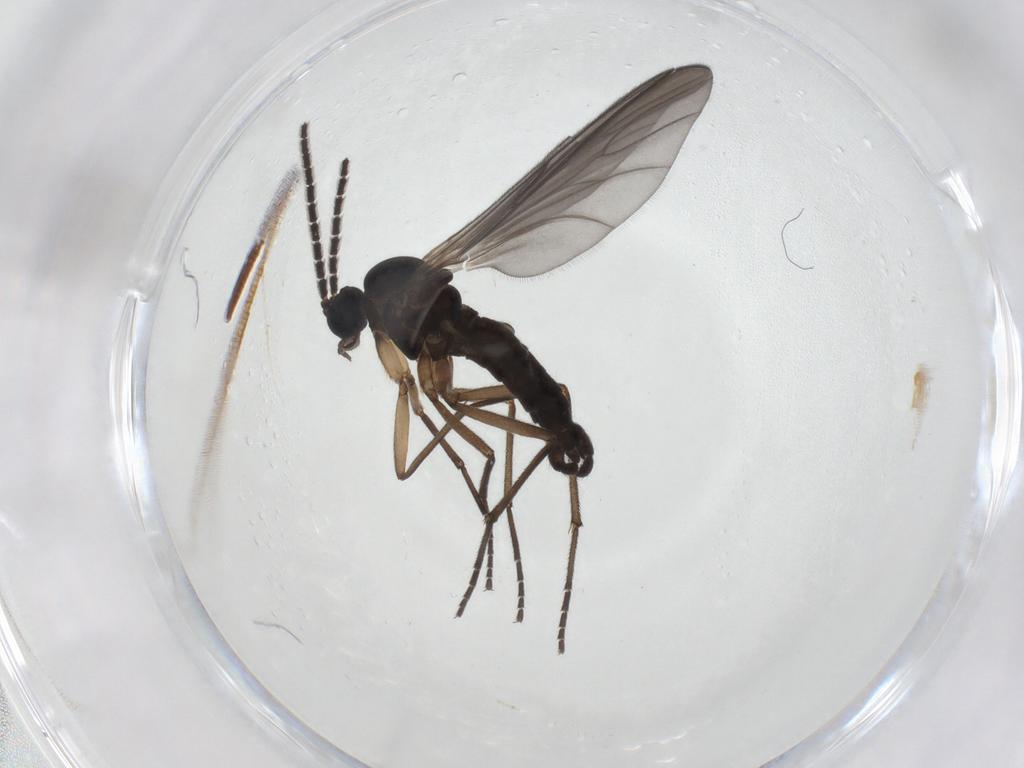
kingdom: Animalia
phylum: Arthropoda
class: Insecta
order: Diptera
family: Sciaridae
